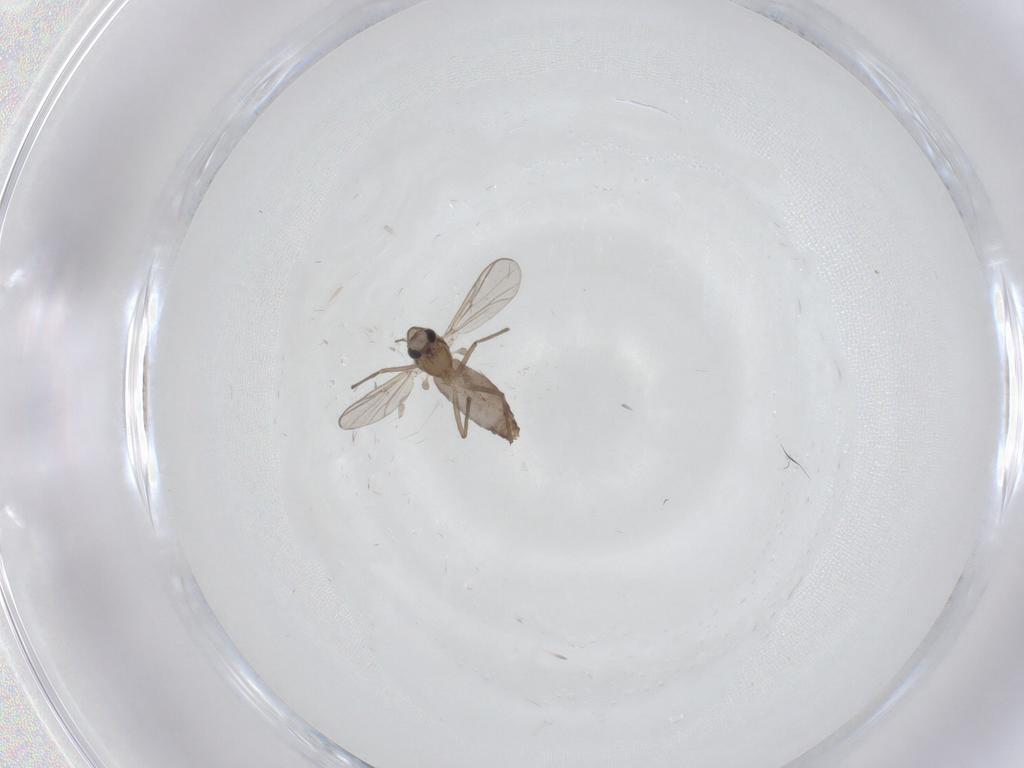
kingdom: Animalia
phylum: Arthropoda
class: Insecta
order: Diptera
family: Chironomidae
